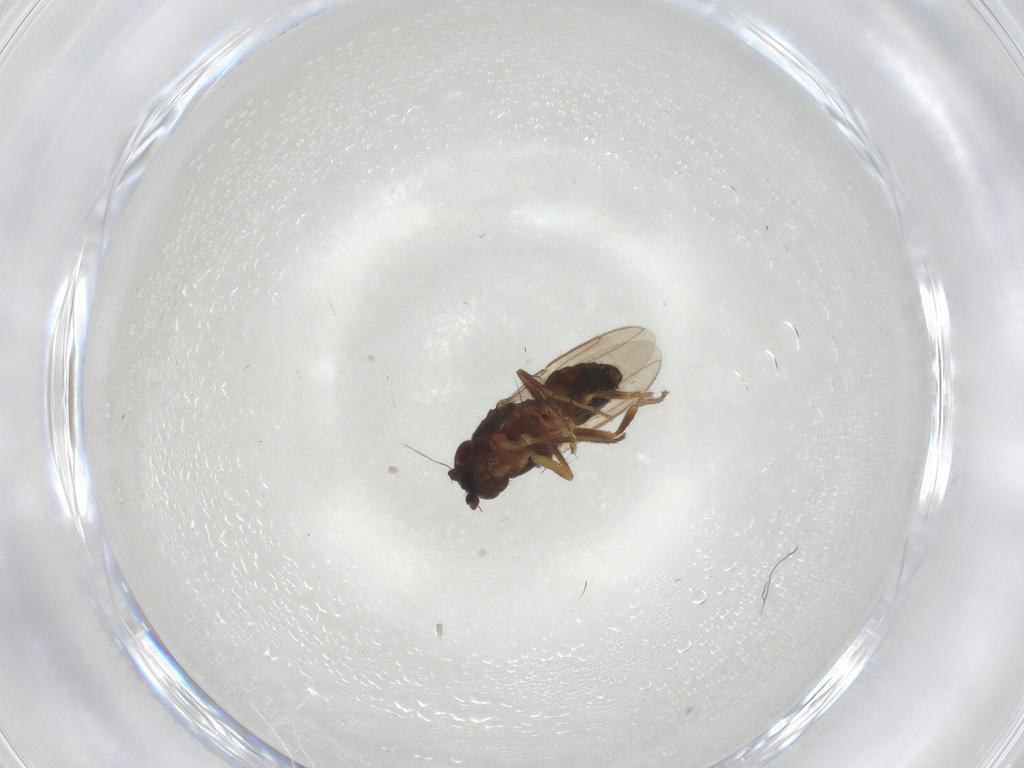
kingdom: Animalia
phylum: Arthropoda
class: Insecta
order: Diptera
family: Sphaeroceridae
